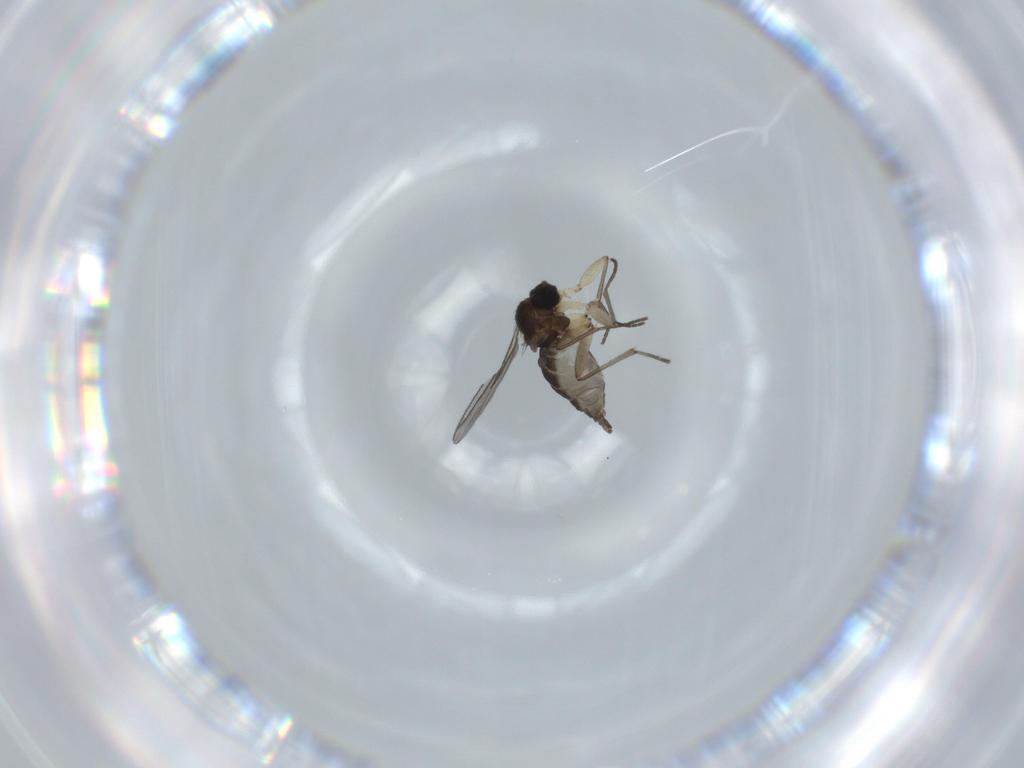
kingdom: Animalia
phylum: Arthropoda
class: Insecta
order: Diptera
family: Sciaridae
